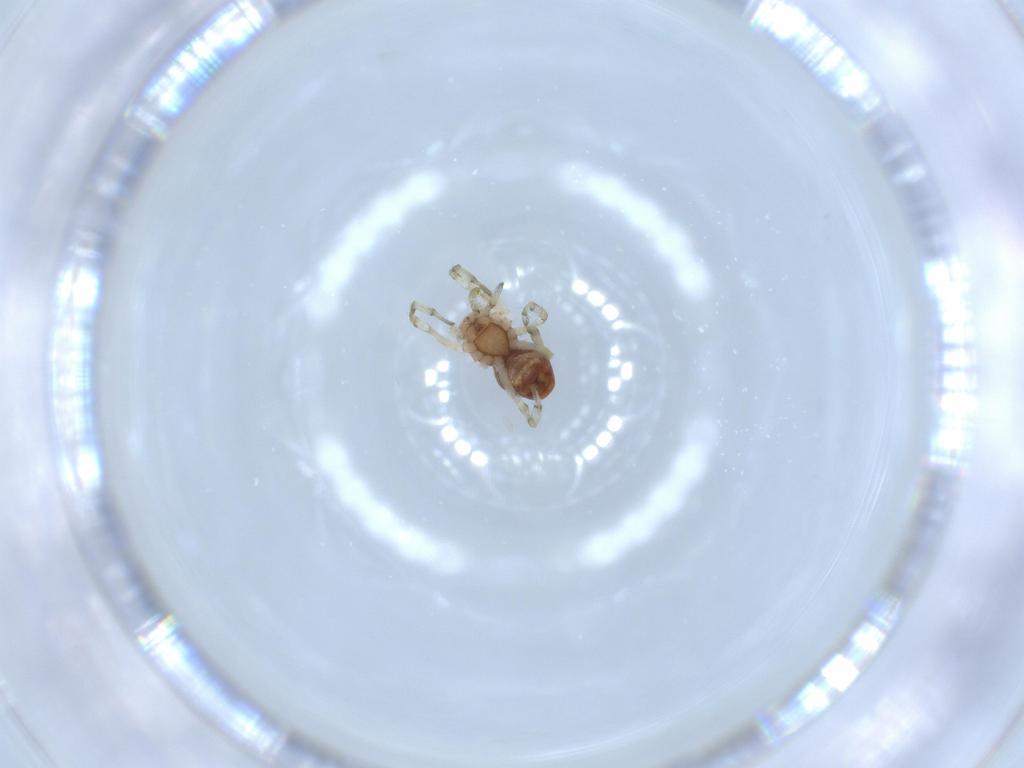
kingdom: Animalia
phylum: Arthropoda
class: Arachnida
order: Araneae
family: Dictynidae
